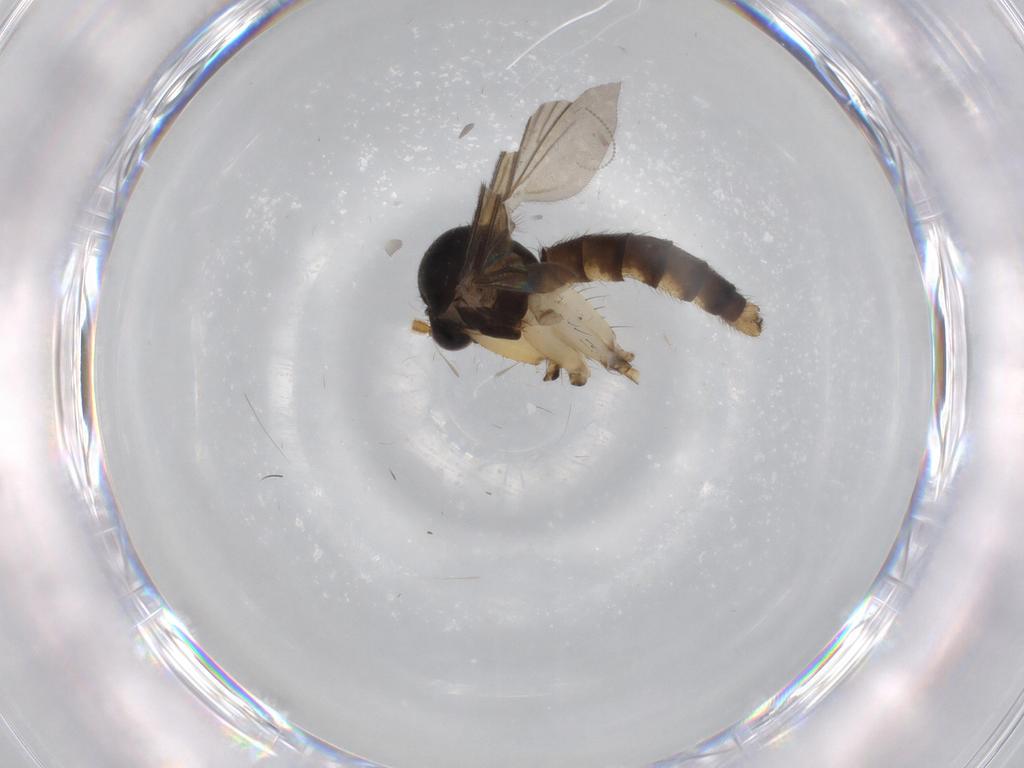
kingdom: Animalia
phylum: Arthropoda
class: Insecta
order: Diptera
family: Mycetophilidae
